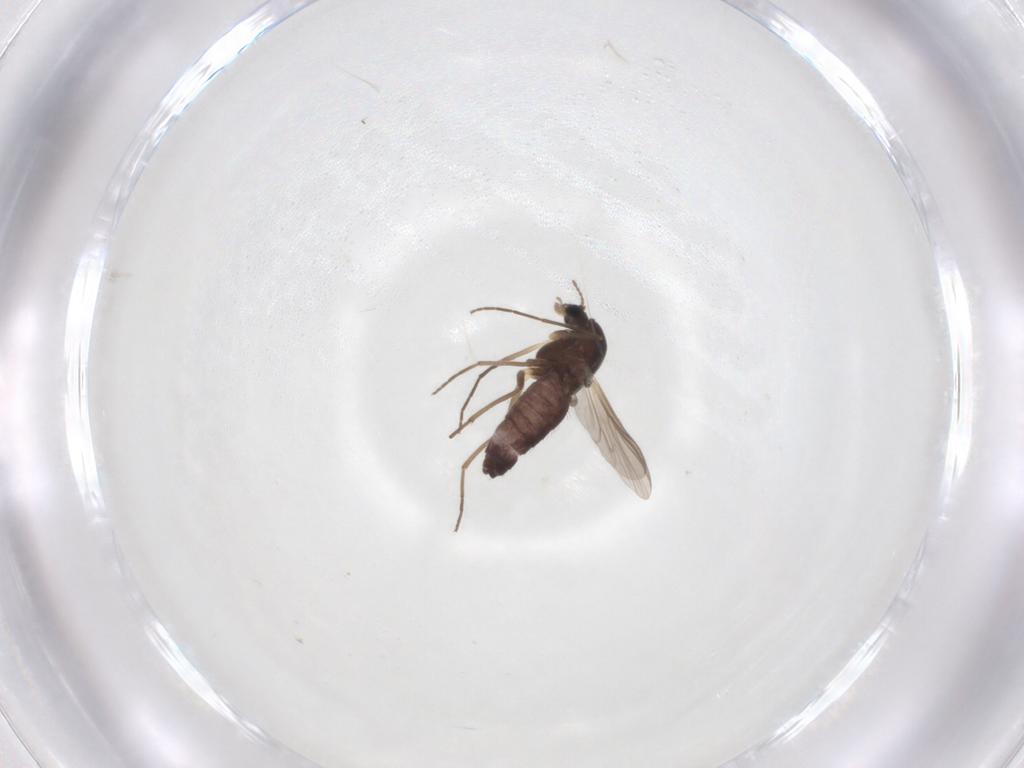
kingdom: Animalia
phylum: Arthropoda
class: Insecta
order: Diptera
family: Chironomidae
